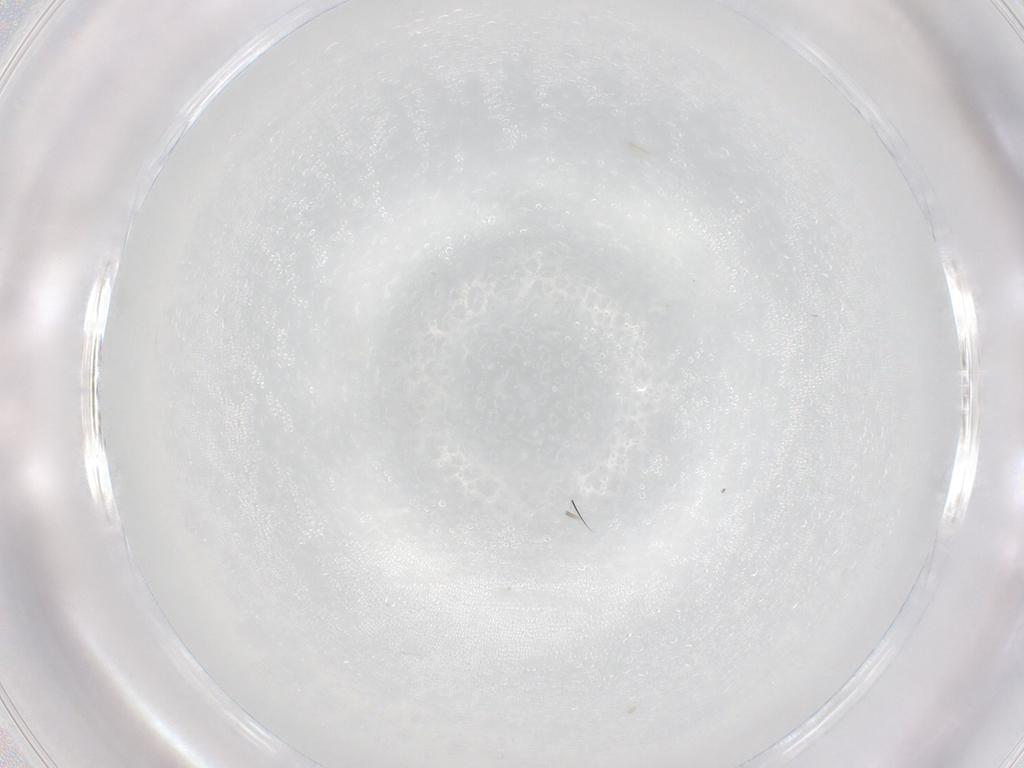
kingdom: Animalia
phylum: Arthropoda
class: Insecta
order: Hymenoptera
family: Mymaridae
